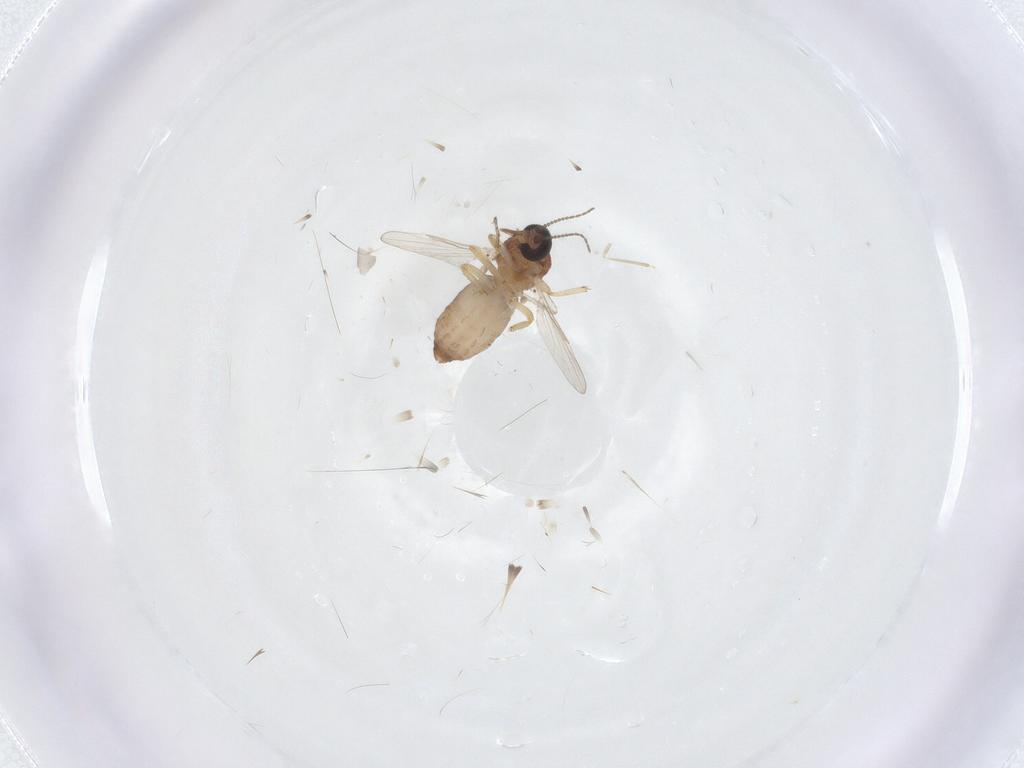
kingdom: Animalia
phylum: Arthropoda
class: Insecta
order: Diptera
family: Ceratopogonidae
